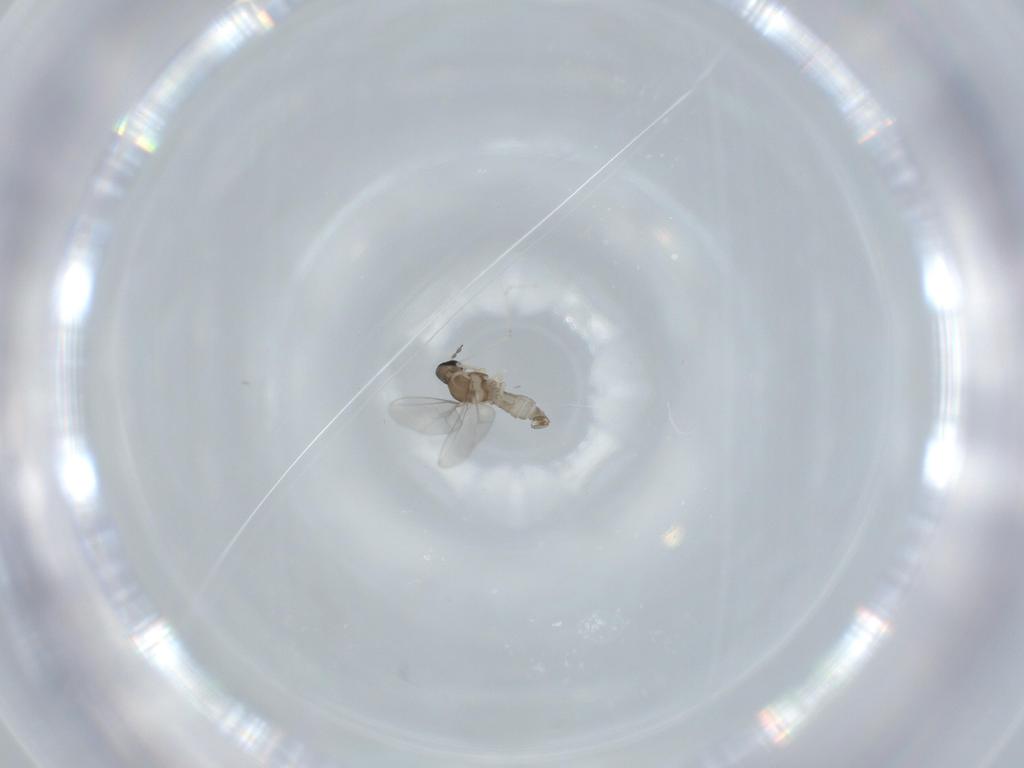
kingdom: Animalia
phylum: Arthropoda
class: Insecta
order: Diptera
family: Cecidomyiidae
